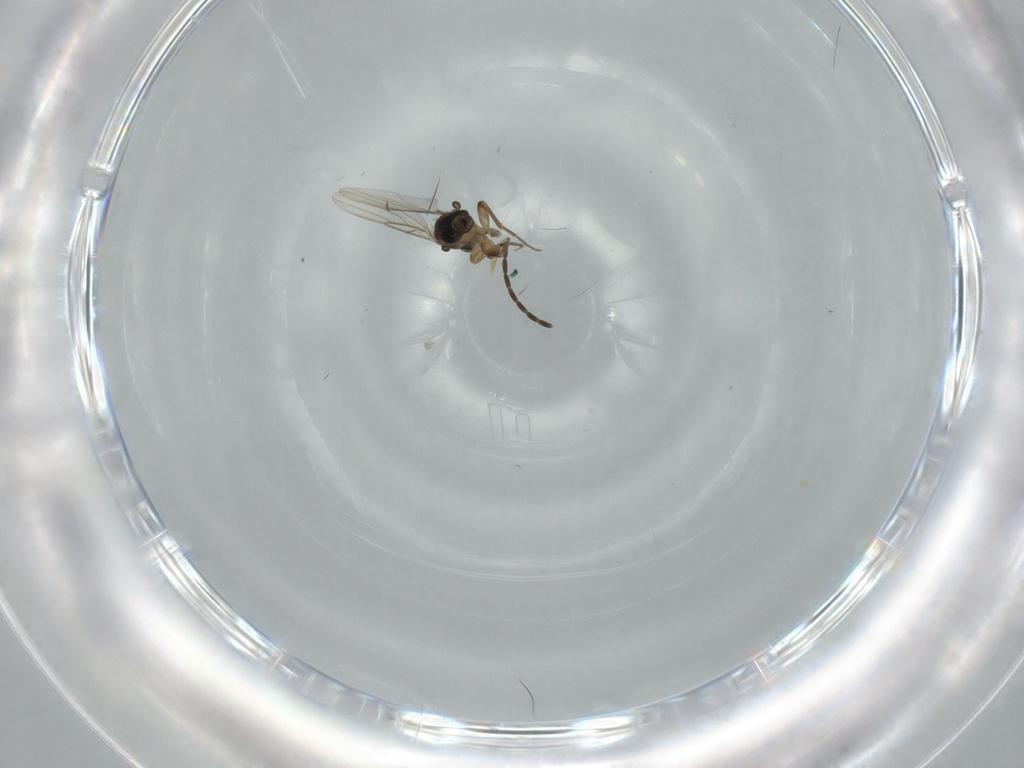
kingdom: Animalia
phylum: Arthropoda
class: Insecta
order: Diptera
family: Phoridae
